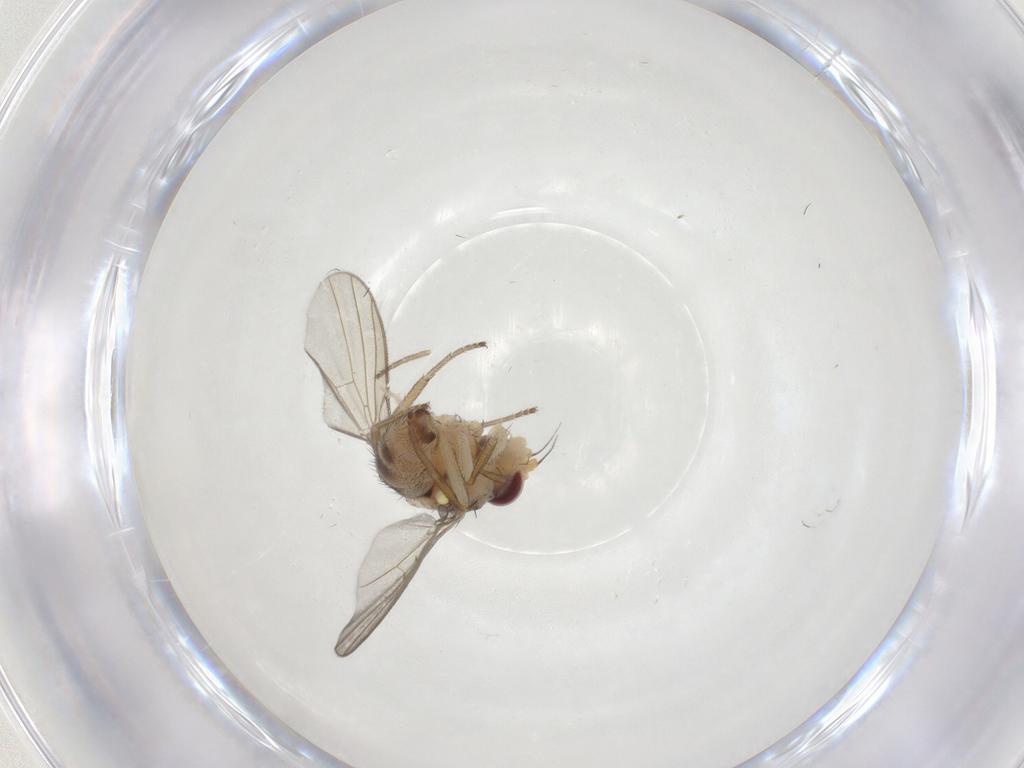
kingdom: Animalia
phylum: Arthropoda
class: Insecta
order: Diptera
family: Agromyzidae
